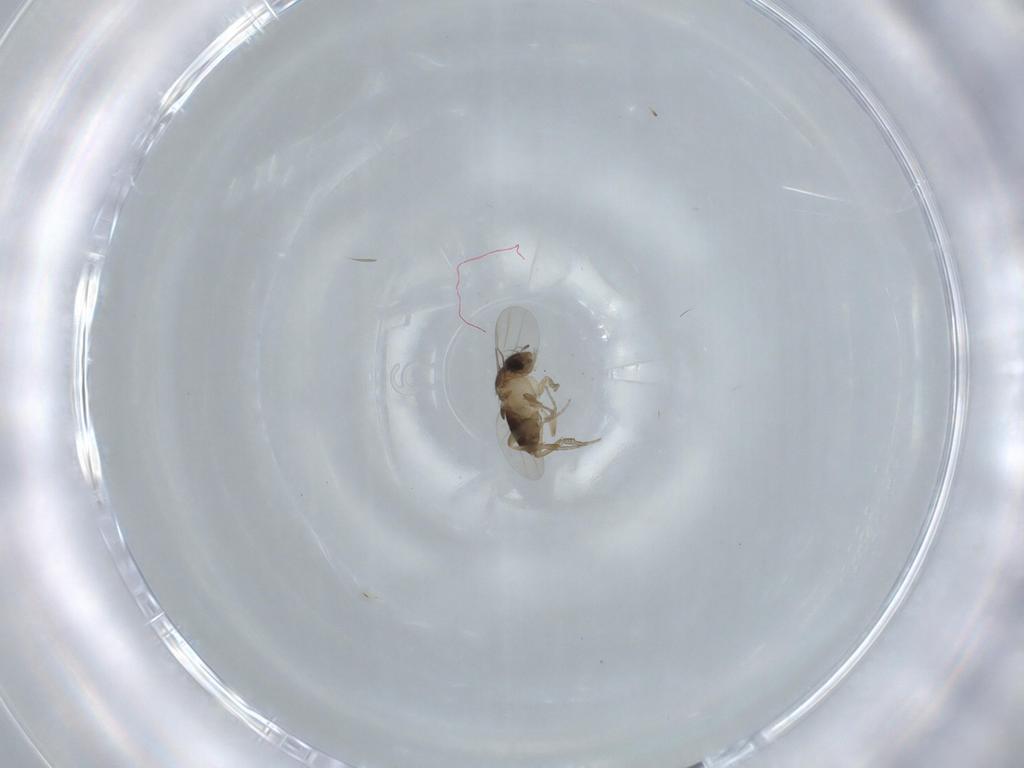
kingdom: Animalia
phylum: Arthropoda
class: Insecta
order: Diptera
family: Phoridae
